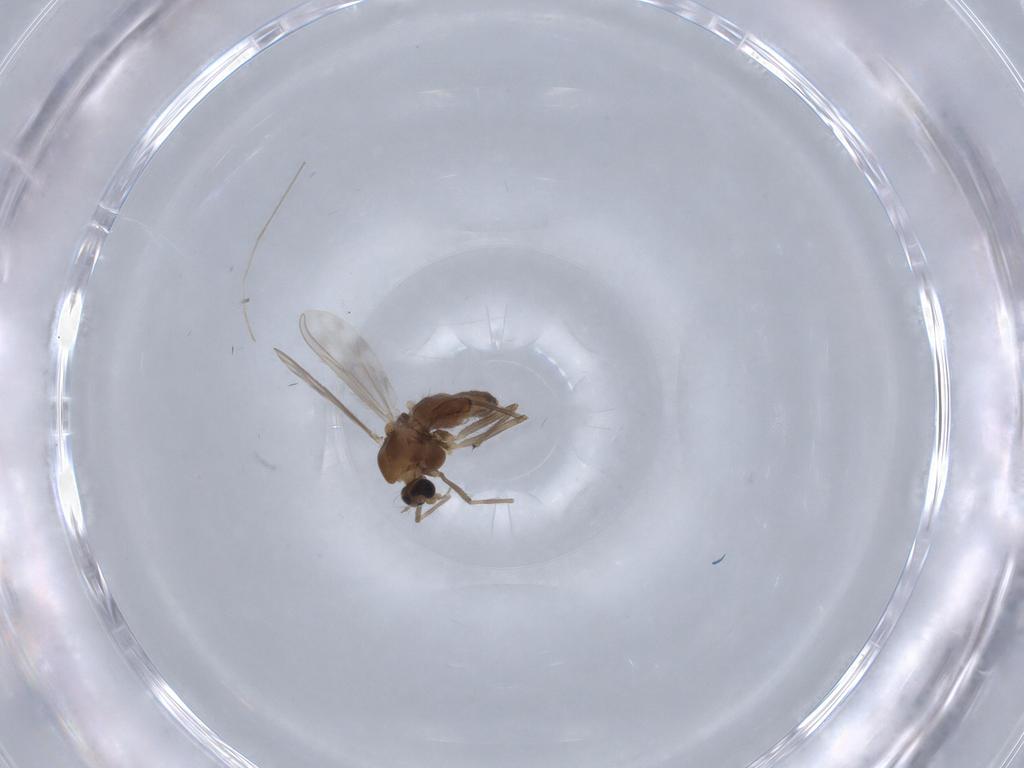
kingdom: Animalia
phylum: Arthropoda
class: Insecta
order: Diptera
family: Chironomidae
